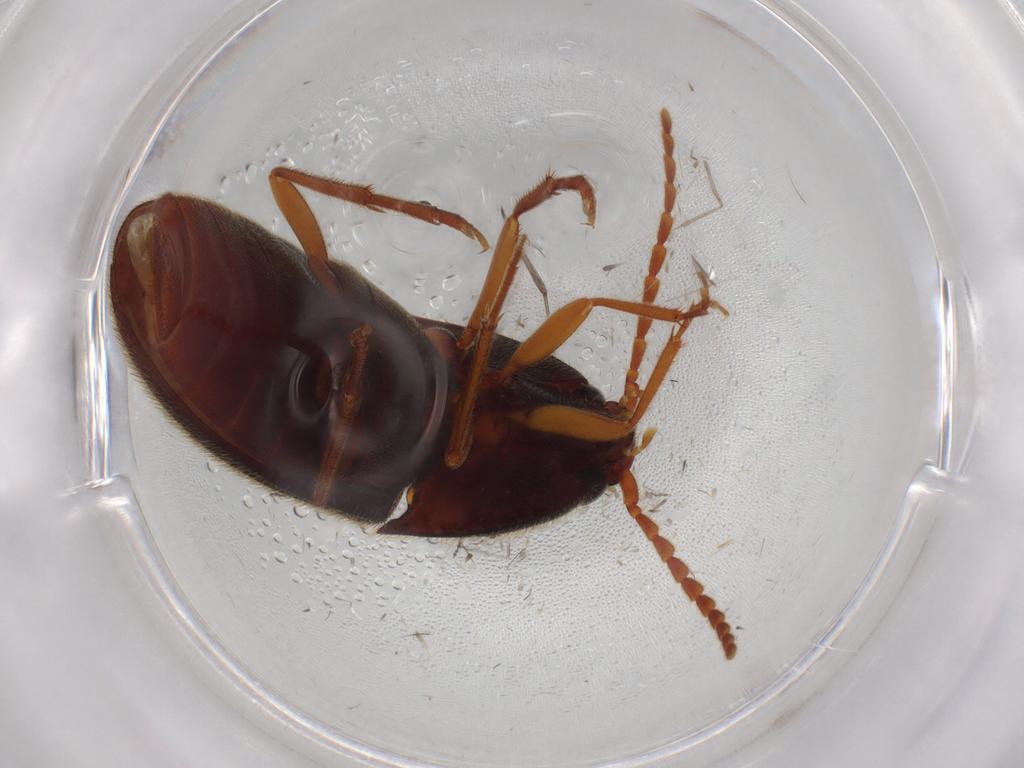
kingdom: Animalia
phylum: Arthropoda
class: Insecta
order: Coleoptera
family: Elateridae
